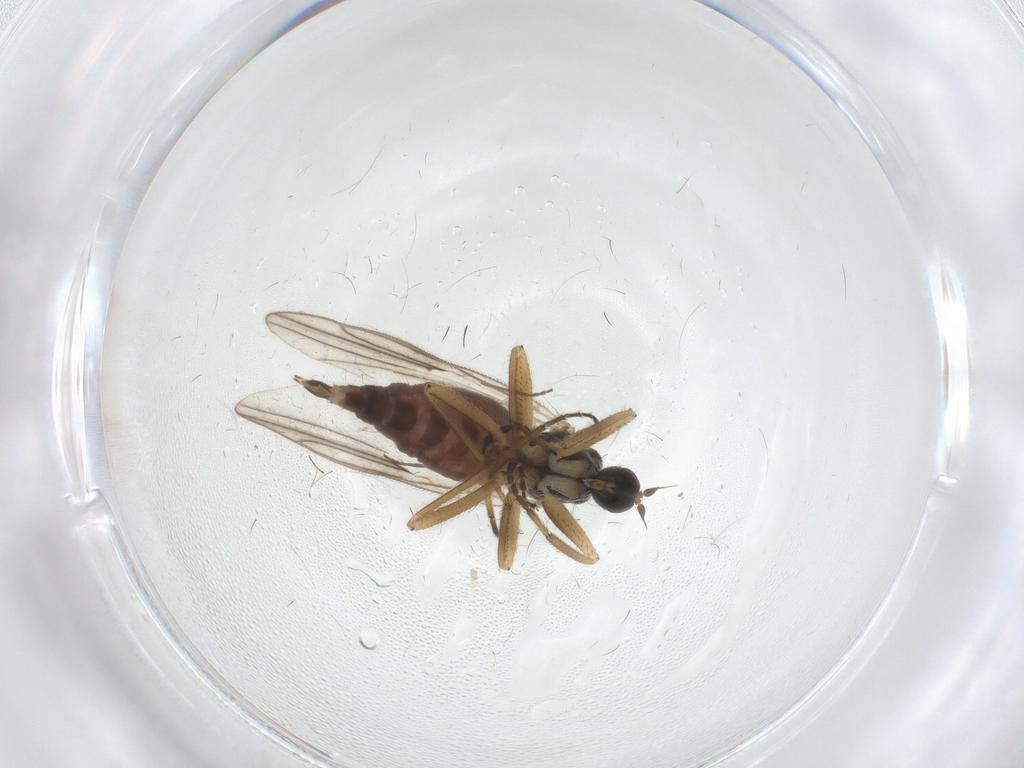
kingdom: Animalia
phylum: Arthropoda
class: Insecta
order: Diptera
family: Hybotidae
